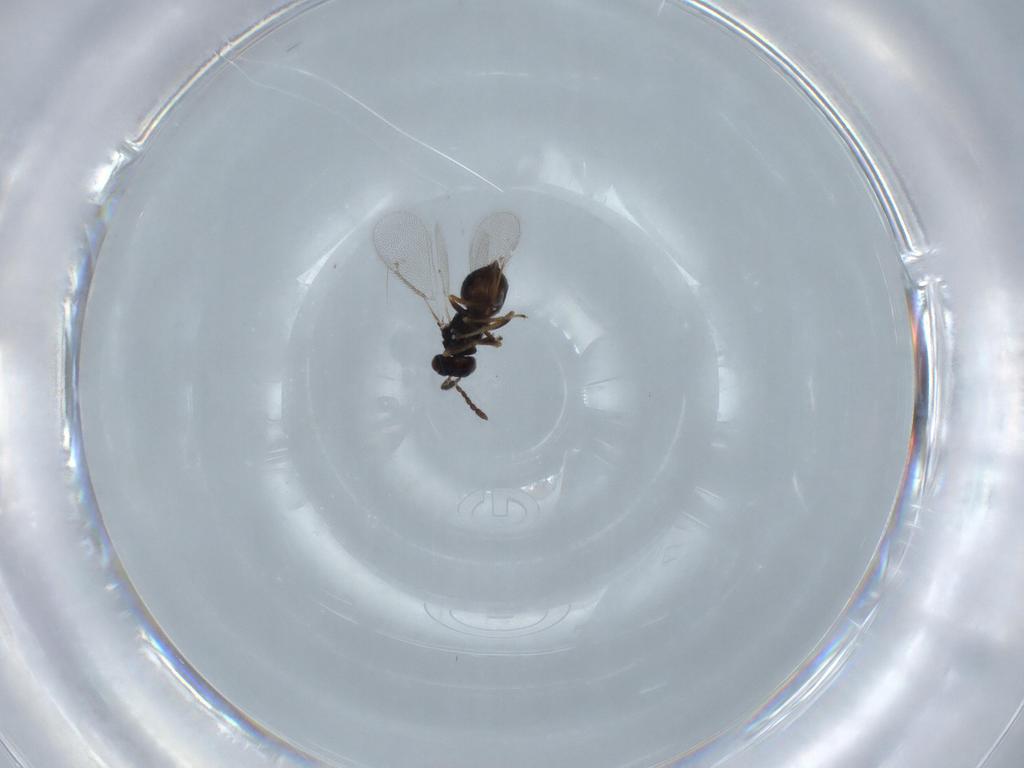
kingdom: Animalia
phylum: Arthropoda
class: Insecta
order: Hymenoptera
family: Eulophidae
